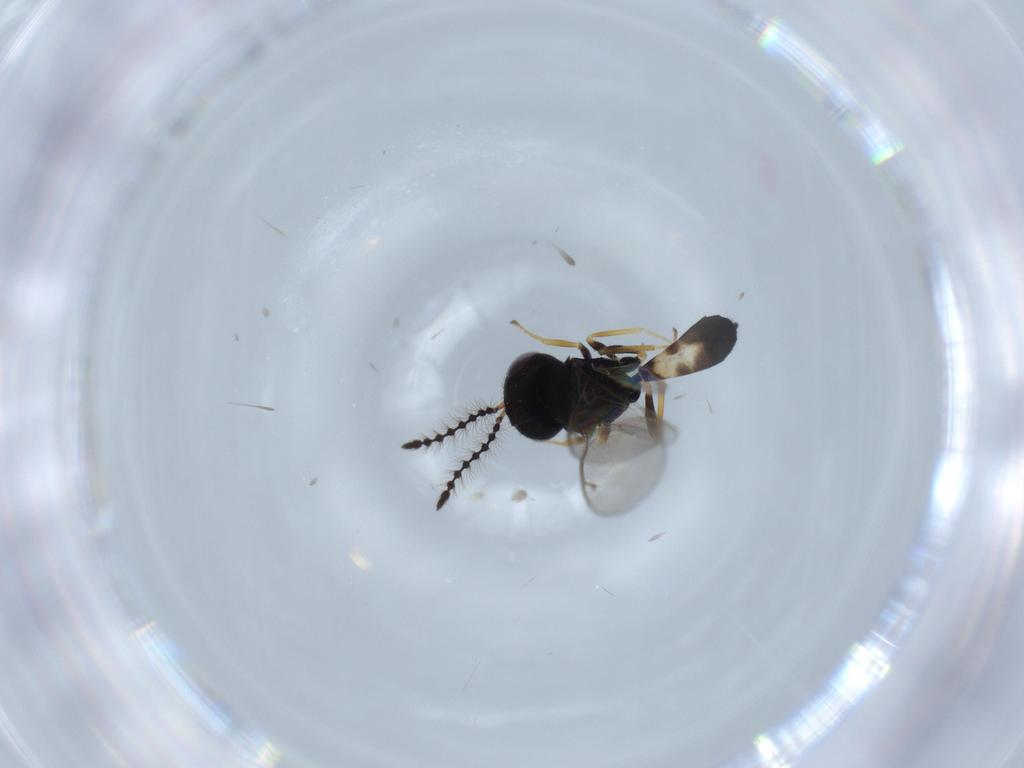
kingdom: Animalia
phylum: Arthropoda
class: Insecta
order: Hymenoptera
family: Pteromalidae
